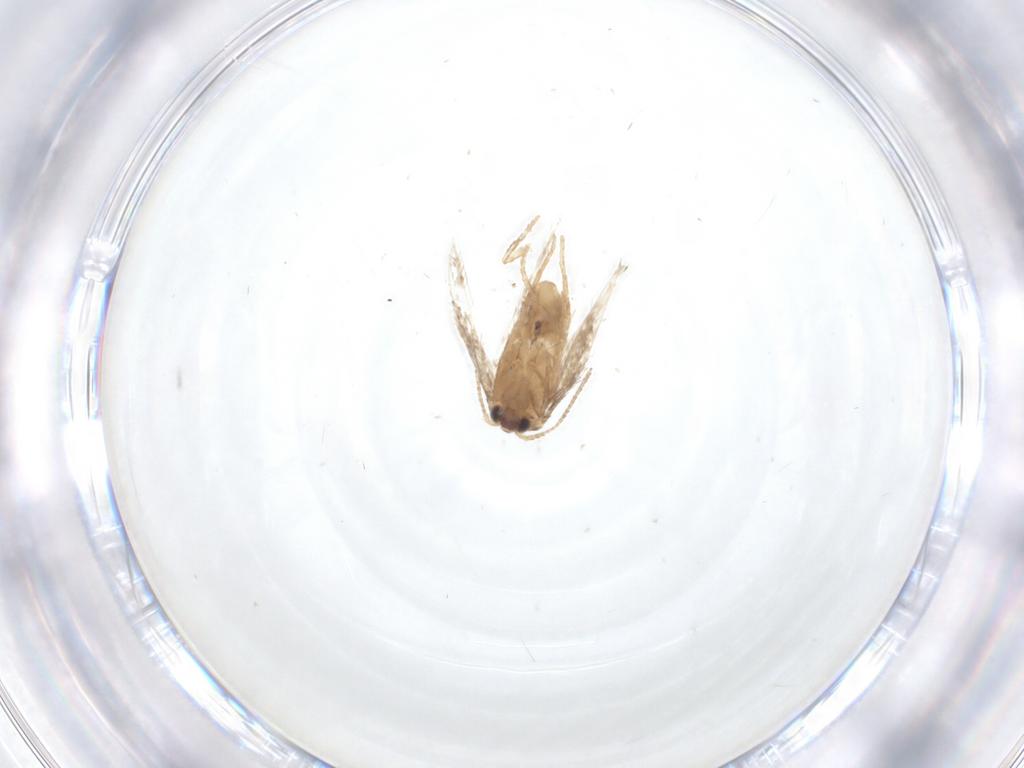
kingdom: Animalia
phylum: Arthropoda
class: Insecta
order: Lepidoptera
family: Nepticulidae
